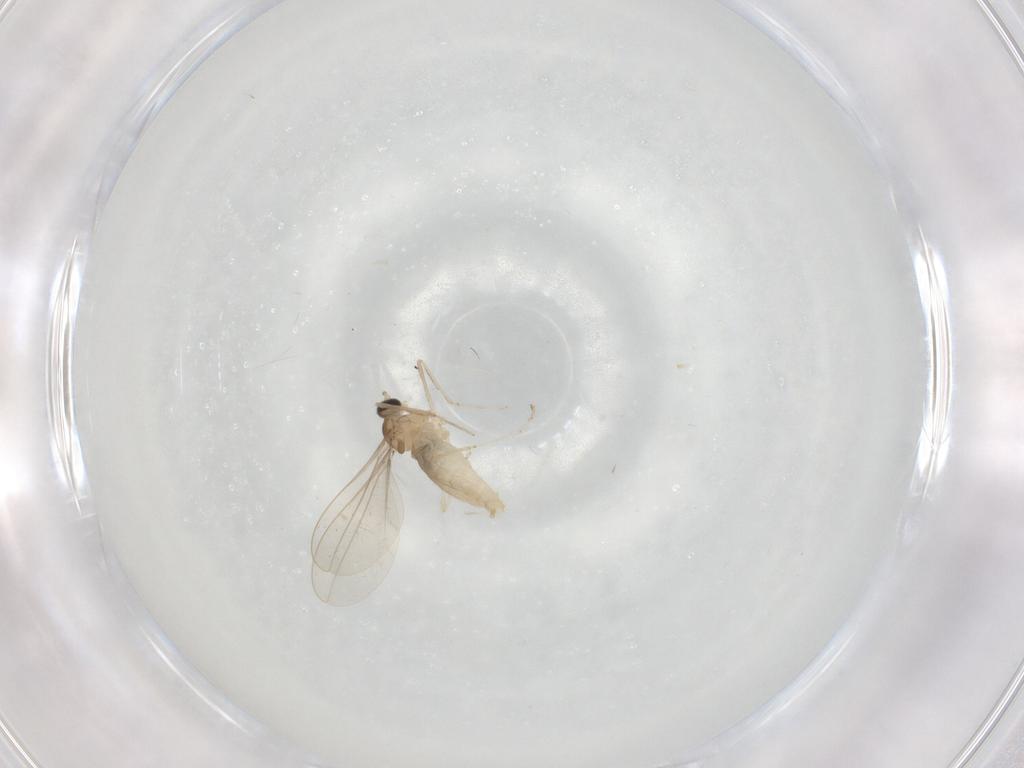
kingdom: Animalia
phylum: Arthropoda
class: Insecta
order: Diptera
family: Cecidomyiidae
